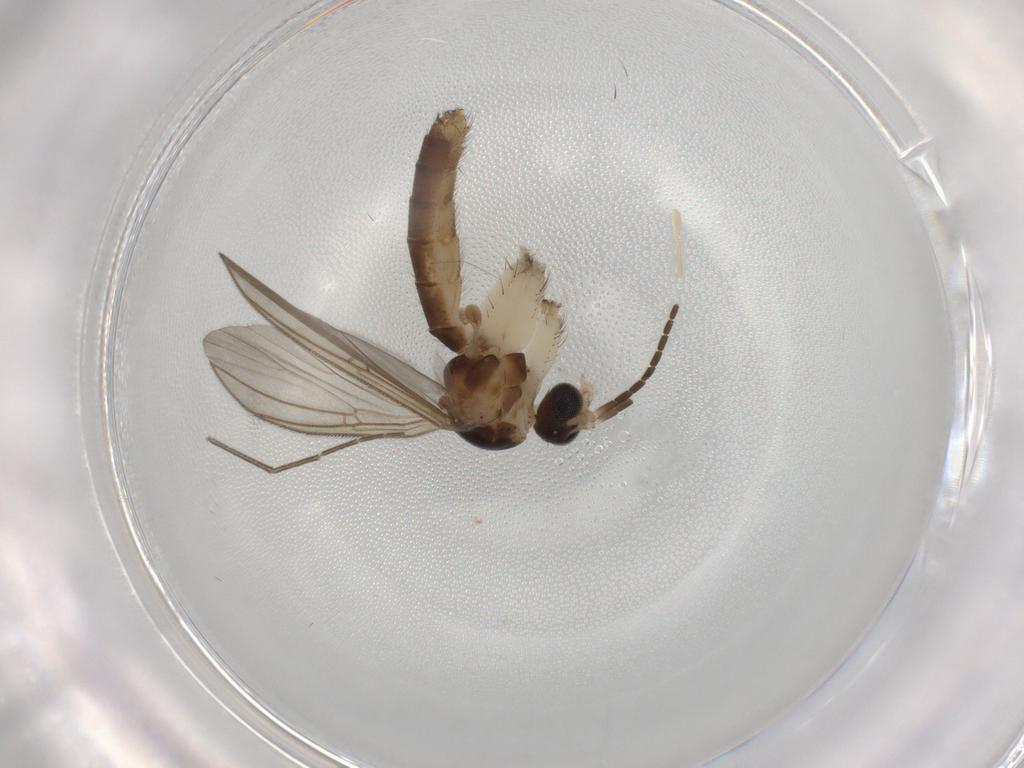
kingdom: Animalia
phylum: Arthropoda
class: Insecta
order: Diptera
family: Mycetophilidae
